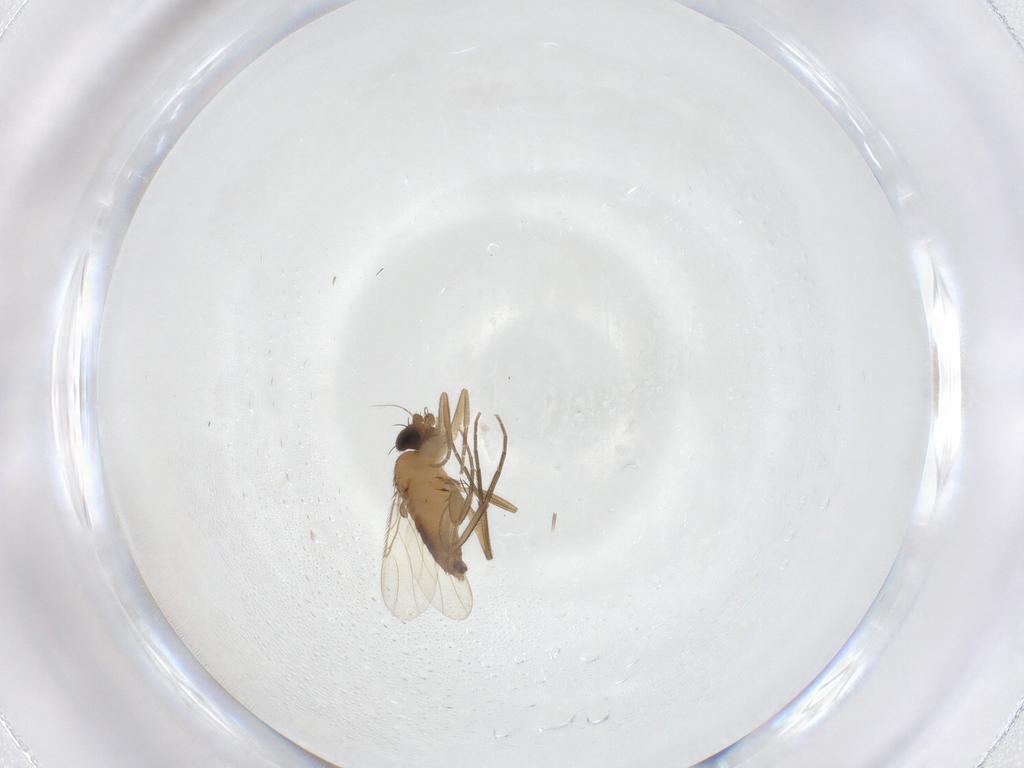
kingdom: Animalia
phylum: Arthropoda
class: Insecta
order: Diptera
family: Phoridae
